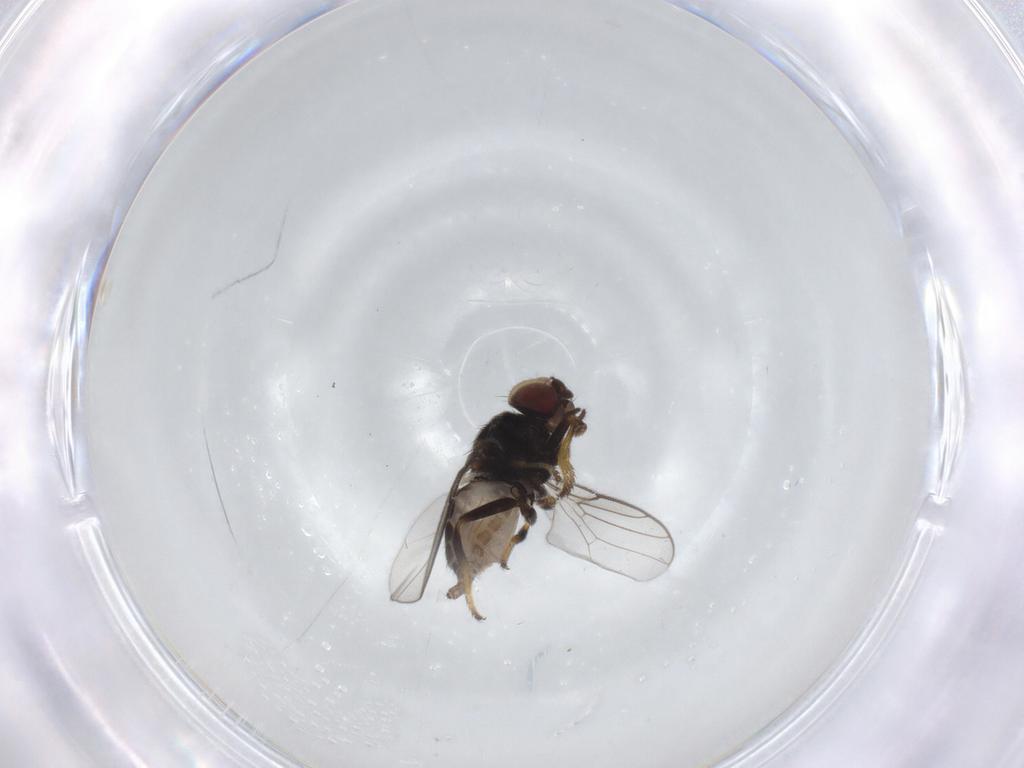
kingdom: Animalia
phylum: Arthropoda
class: Insecta
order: Diptera
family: Chloropidae
